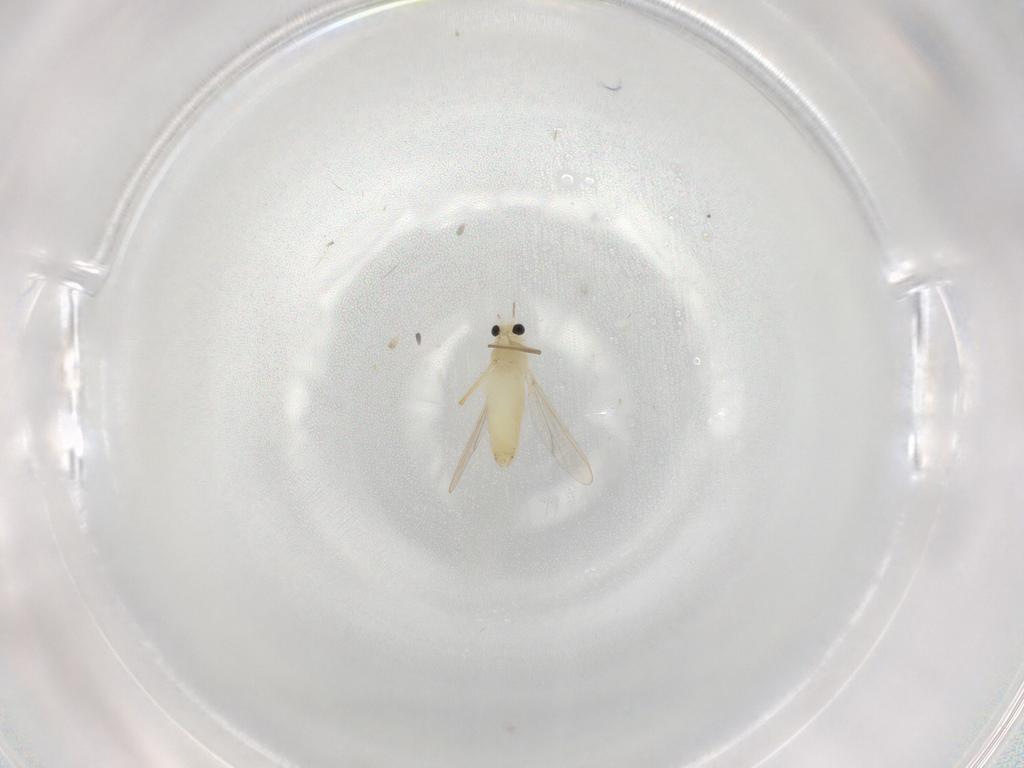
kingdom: Animalia
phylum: Arthropoda
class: Insecta
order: Diptera
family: Chironomidae
